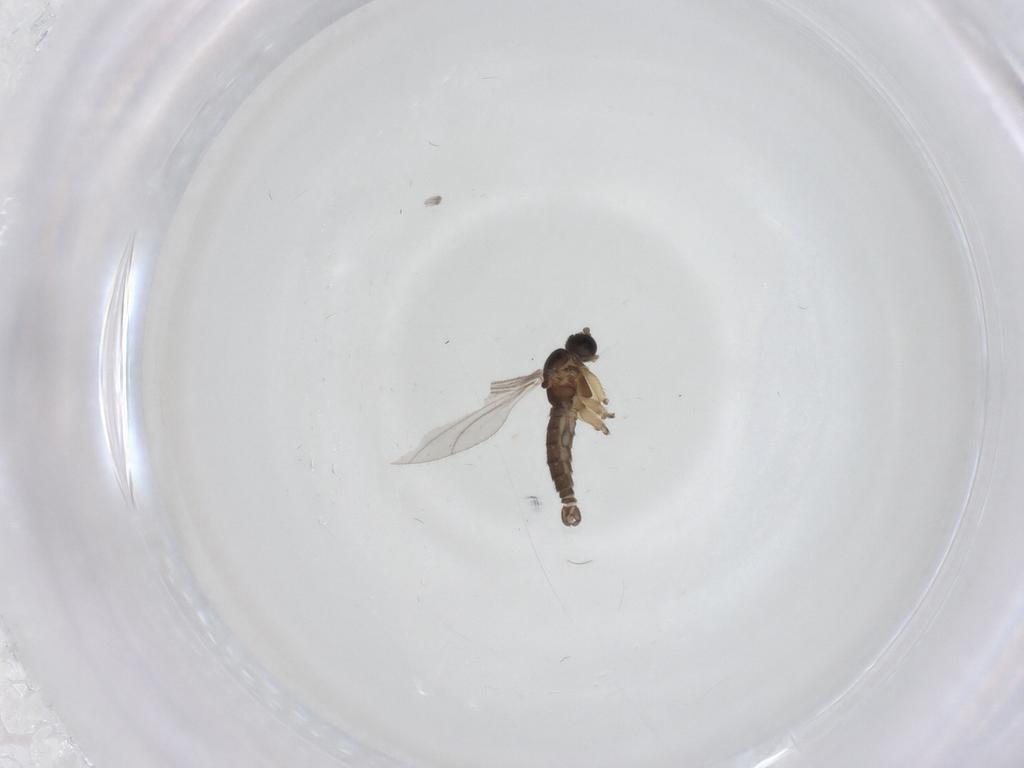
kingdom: Animalia
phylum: Arthropoda
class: Insecta
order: Diptera
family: Sciaridae
